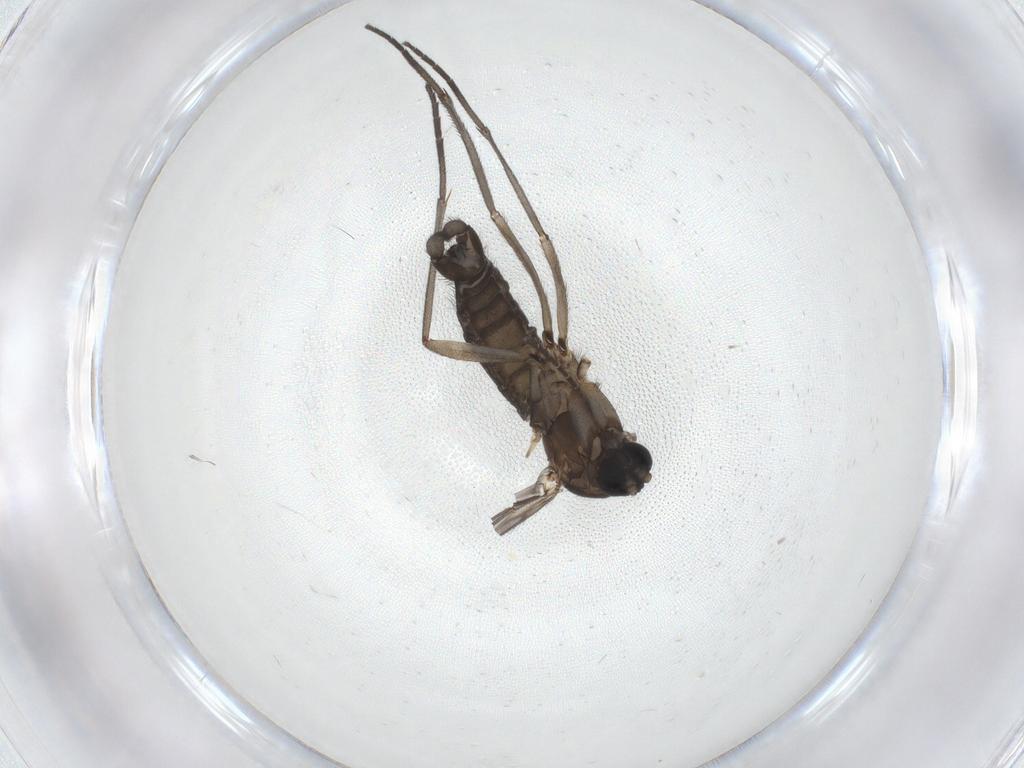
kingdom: Animalia
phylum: Arthropoda
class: Insecta
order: Diptera
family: Sciaridae
